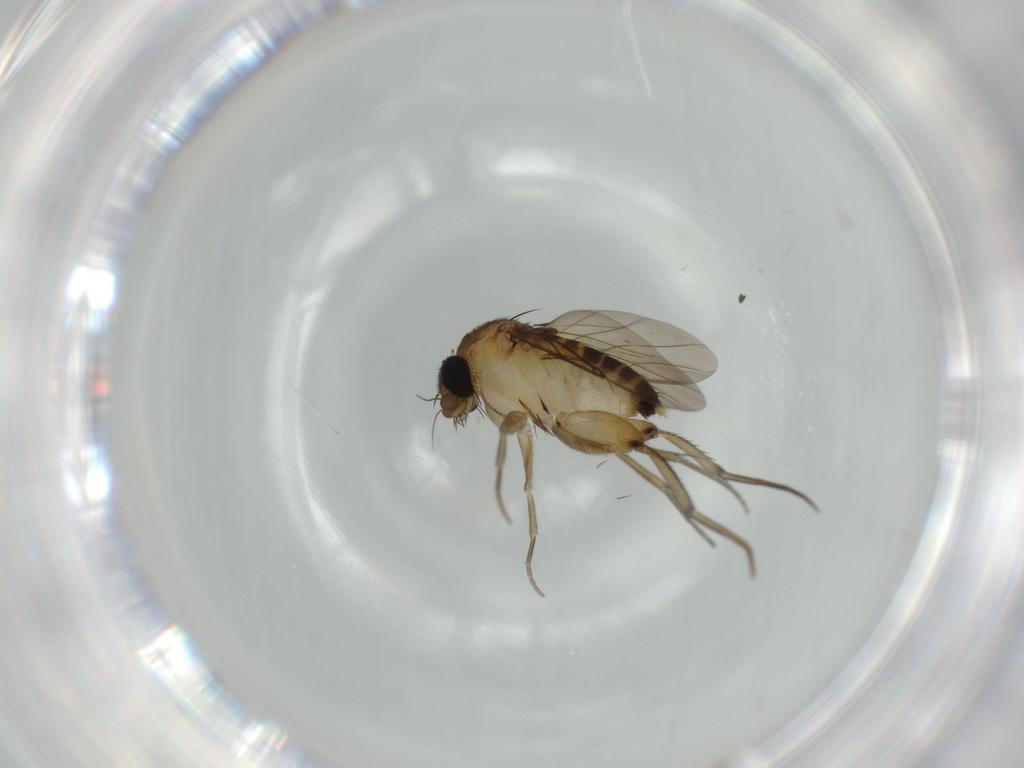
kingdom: Animalia
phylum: Arthropoda
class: Insecta
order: Diptera
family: Phoridae
